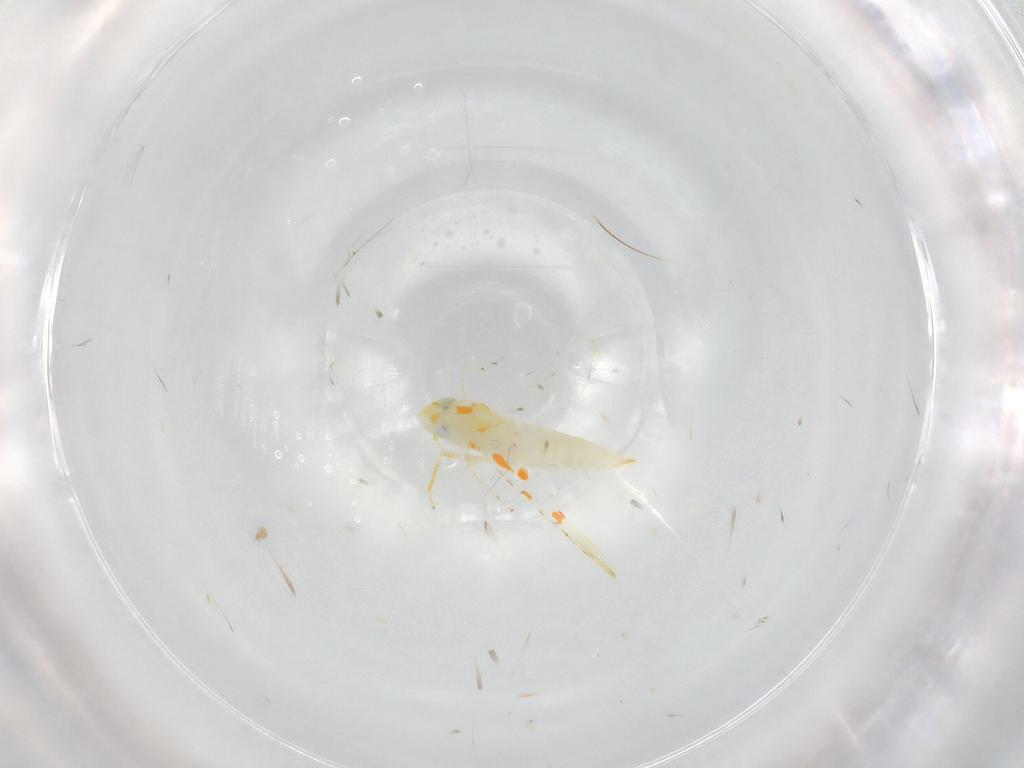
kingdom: Animalia
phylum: Arthropoda
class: Insecta
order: Hemiptera
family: Cicadellidae
